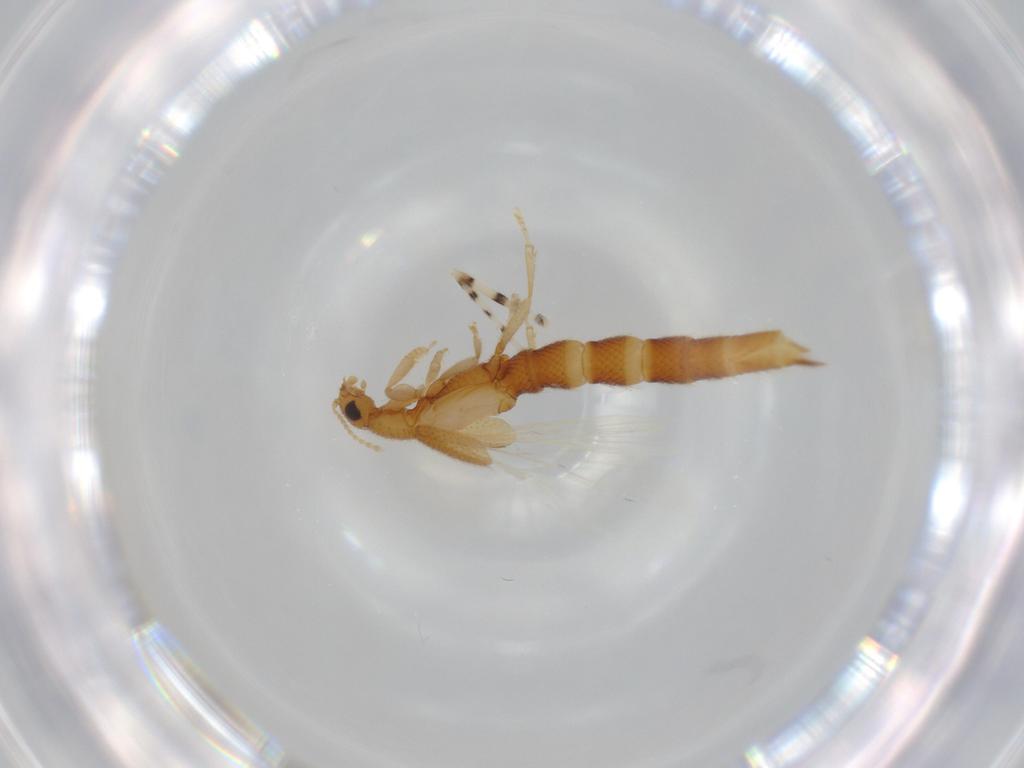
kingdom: Animalia
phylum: Arthropoda
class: Insecta
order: Coleoptera
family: Staphylinidae
